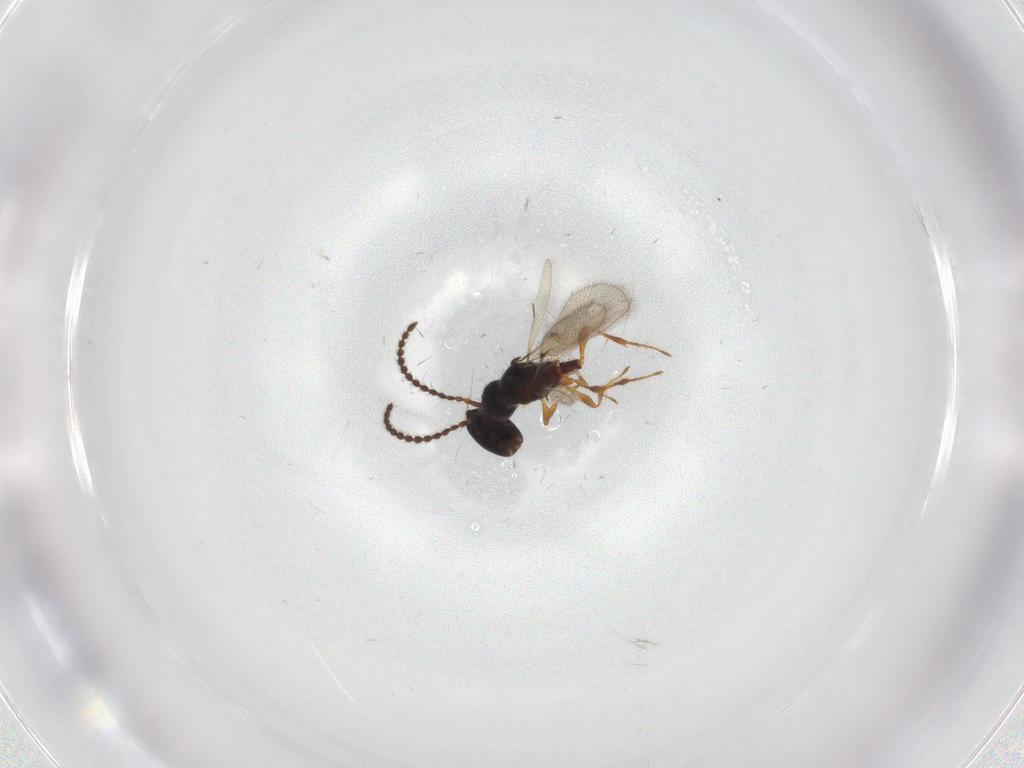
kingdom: Animalia
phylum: Arthropoda
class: Insecta
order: Hymenoptera
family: Diapriidae
